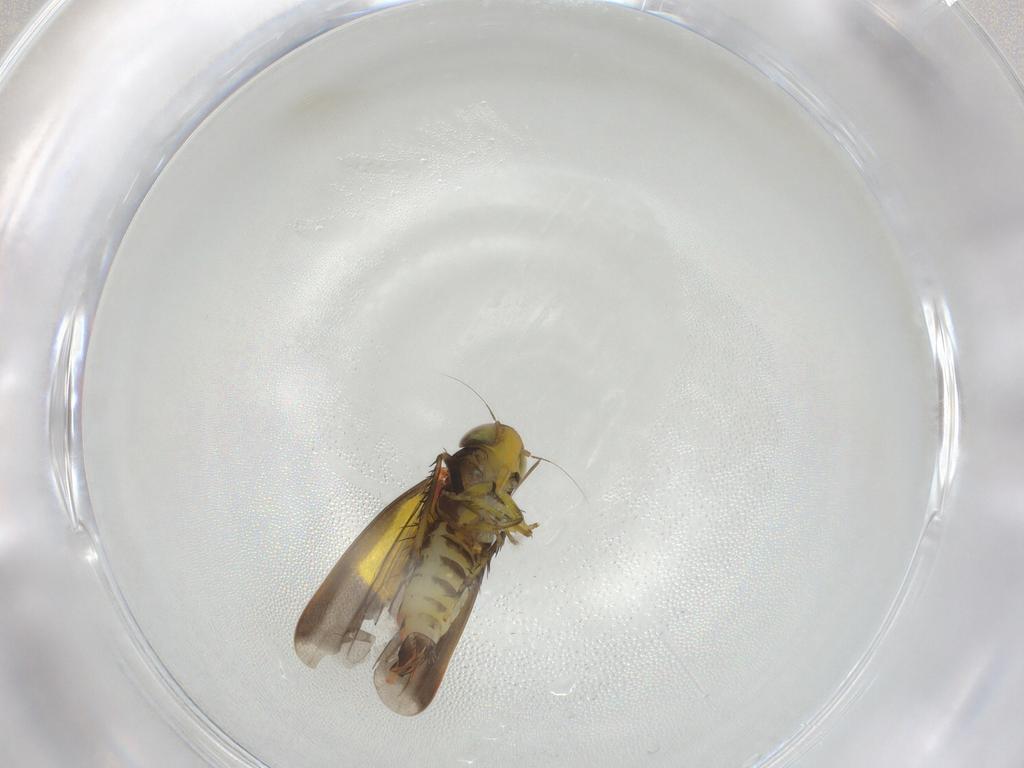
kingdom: Animalia
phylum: Arthropoda
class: Insecta
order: Hemiptera
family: Cicadellidae
